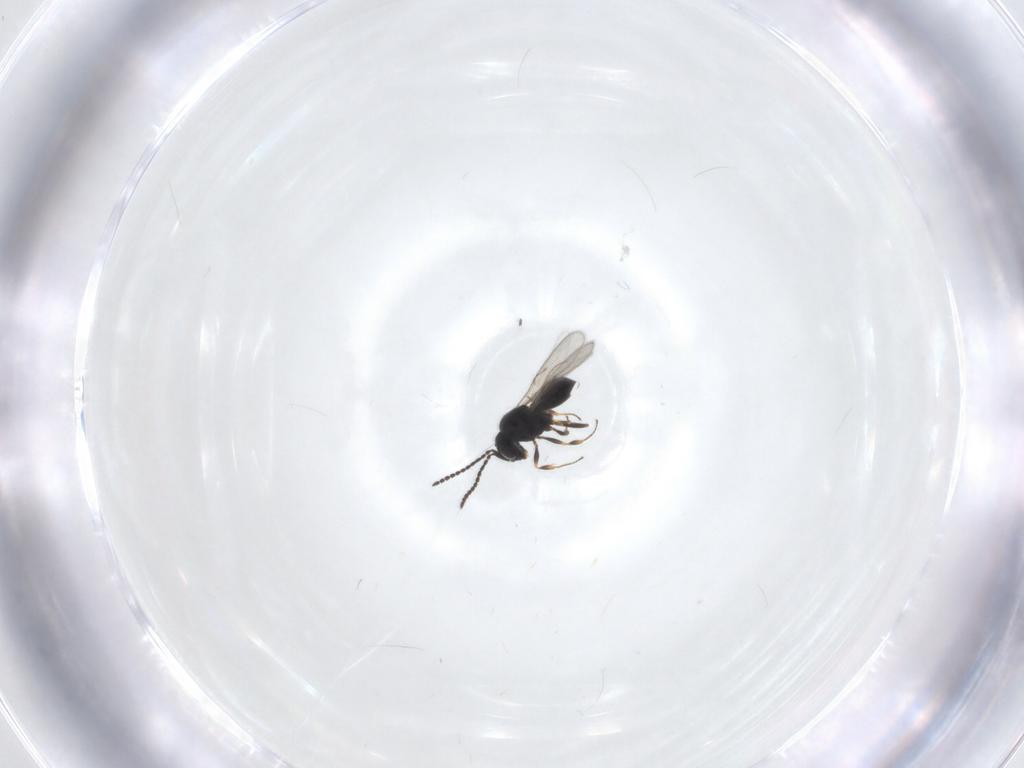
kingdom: Animalia
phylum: Arthropoda
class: Insecta
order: Hymenoptera
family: Scelionidae
